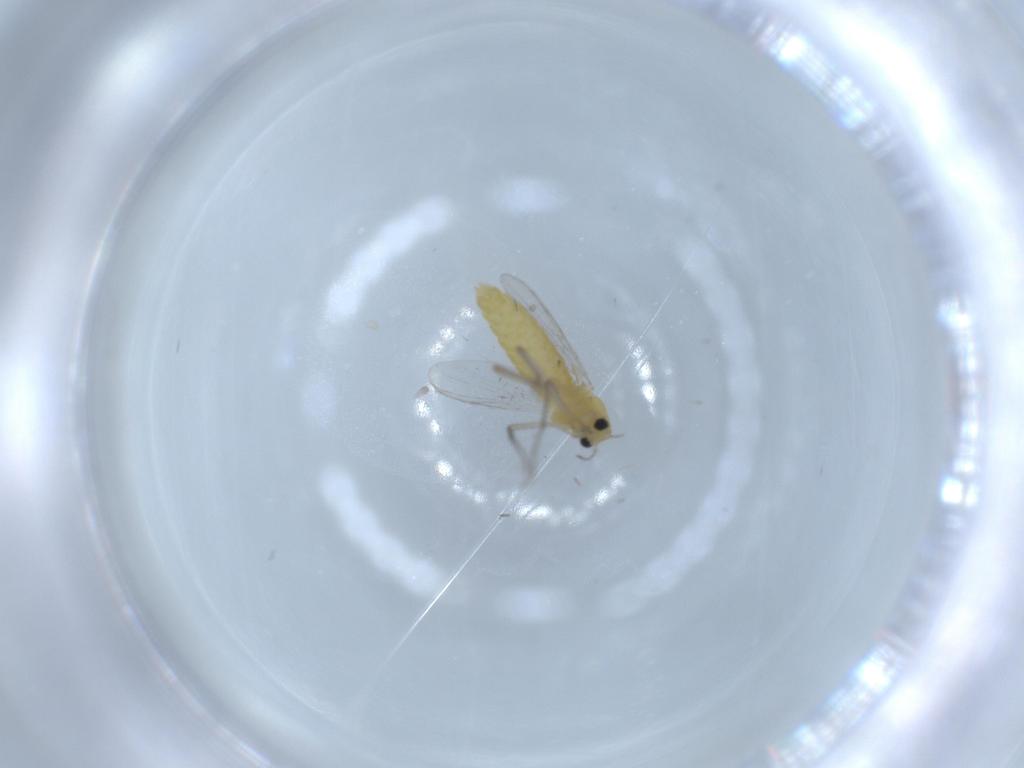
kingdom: Animalia
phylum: Arthropoda
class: Insecta
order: Diptera
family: Chironomidae
